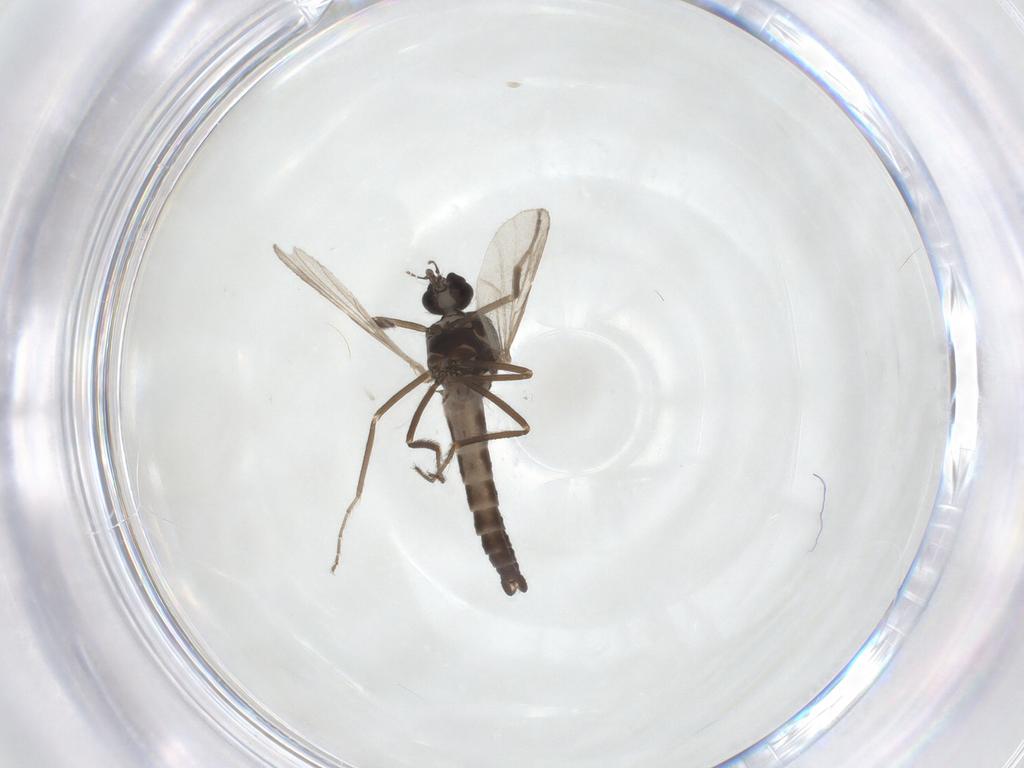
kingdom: Animalia
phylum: Arthropoda
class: Insecta
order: Diptera
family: Ceratopogonidae
